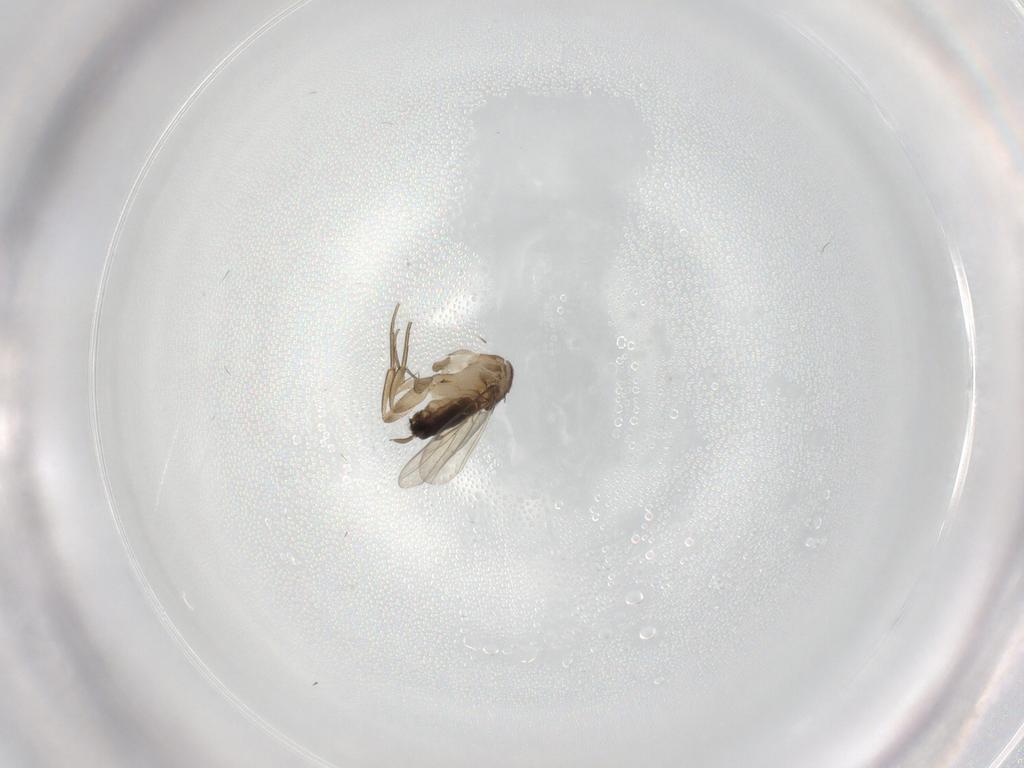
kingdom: Animalia
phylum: Arthropoda
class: Insecta
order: Diptera
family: Cecidomyiidae
